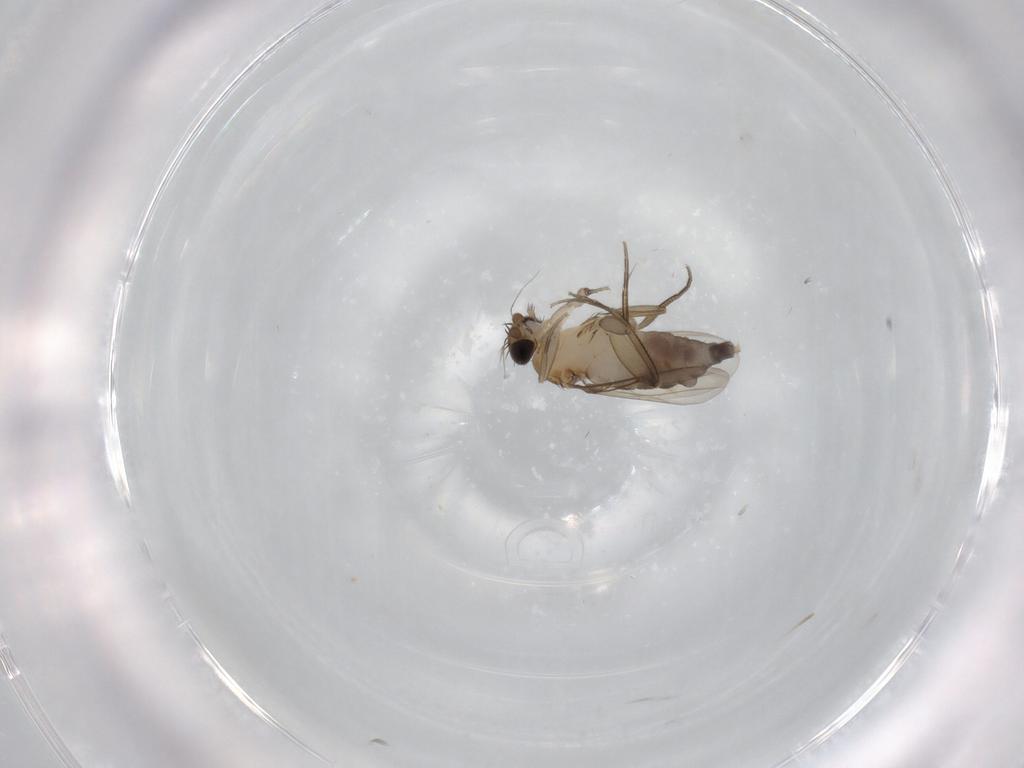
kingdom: Animalia
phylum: Arthropoda
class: Insecta
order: Diptera
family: Phoridae
